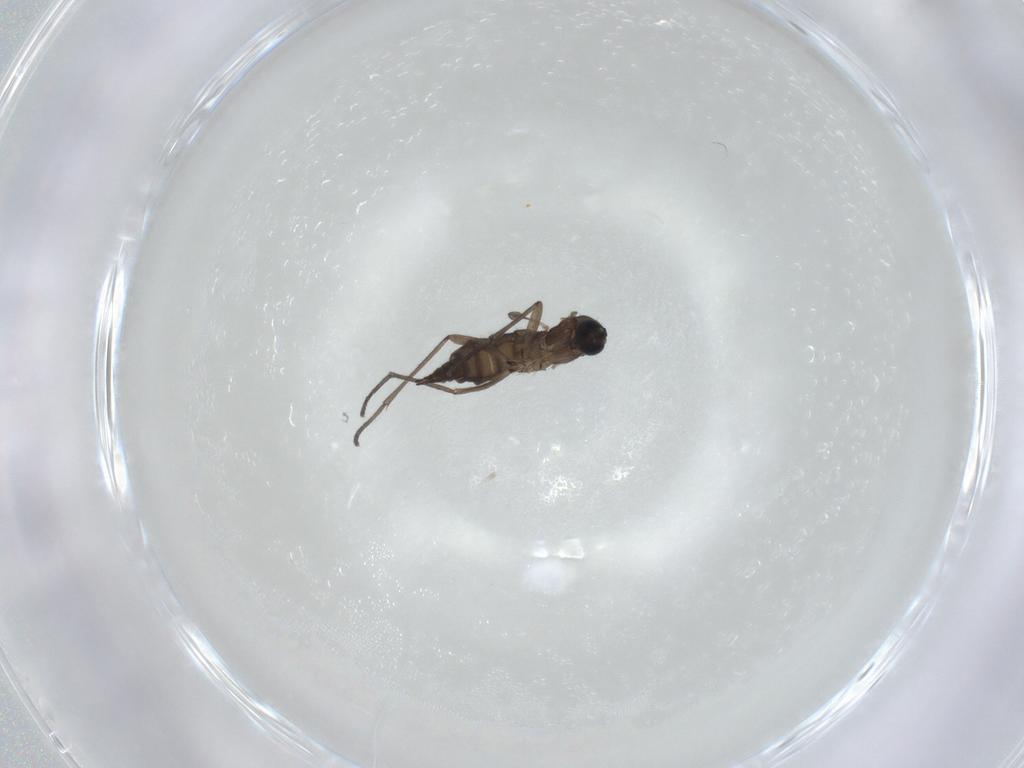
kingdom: Animalia
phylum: Arthropoda
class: Insecta
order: Diptera
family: Sciaridae
